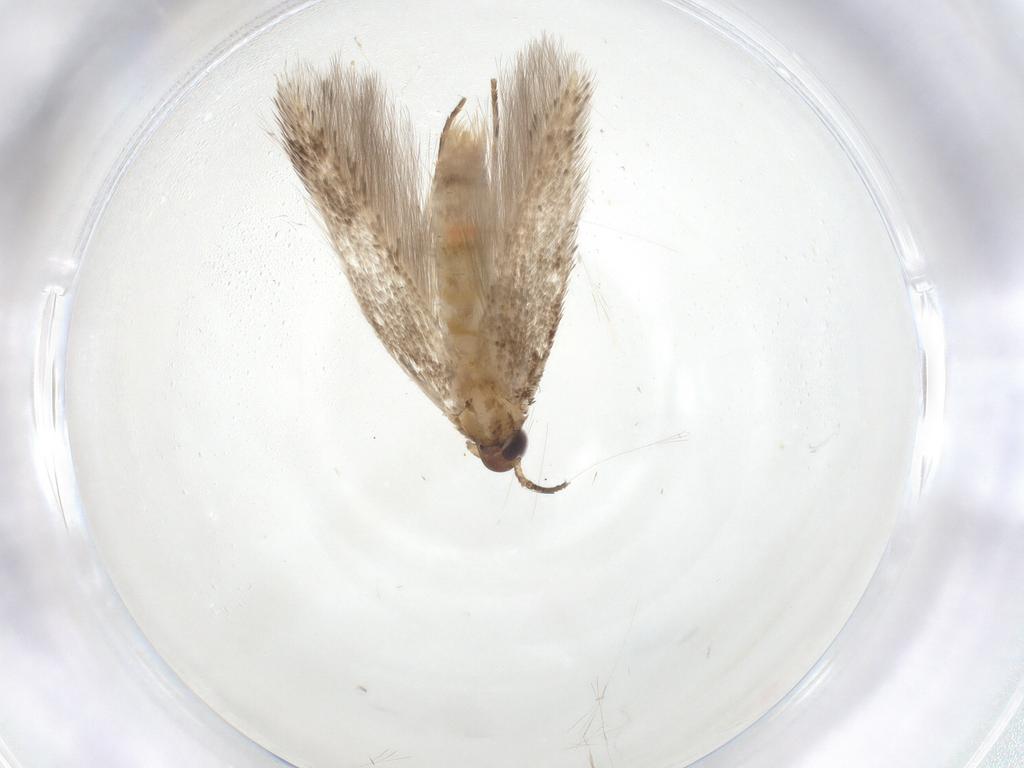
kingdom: Animalia
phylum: Arthropoda
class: Insecta
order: Lepidoptera
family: Cosmopterigidae
